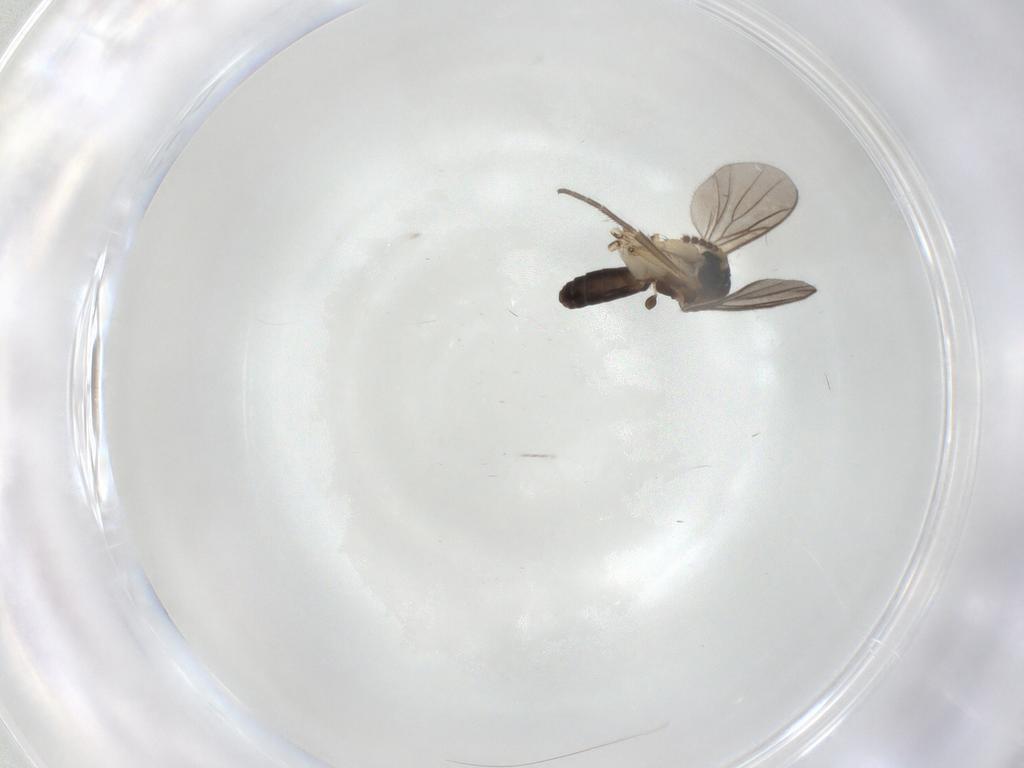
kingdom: Animalia
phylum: Arthropoda
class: Insecta
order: Diptera
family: Mycetophilidae
